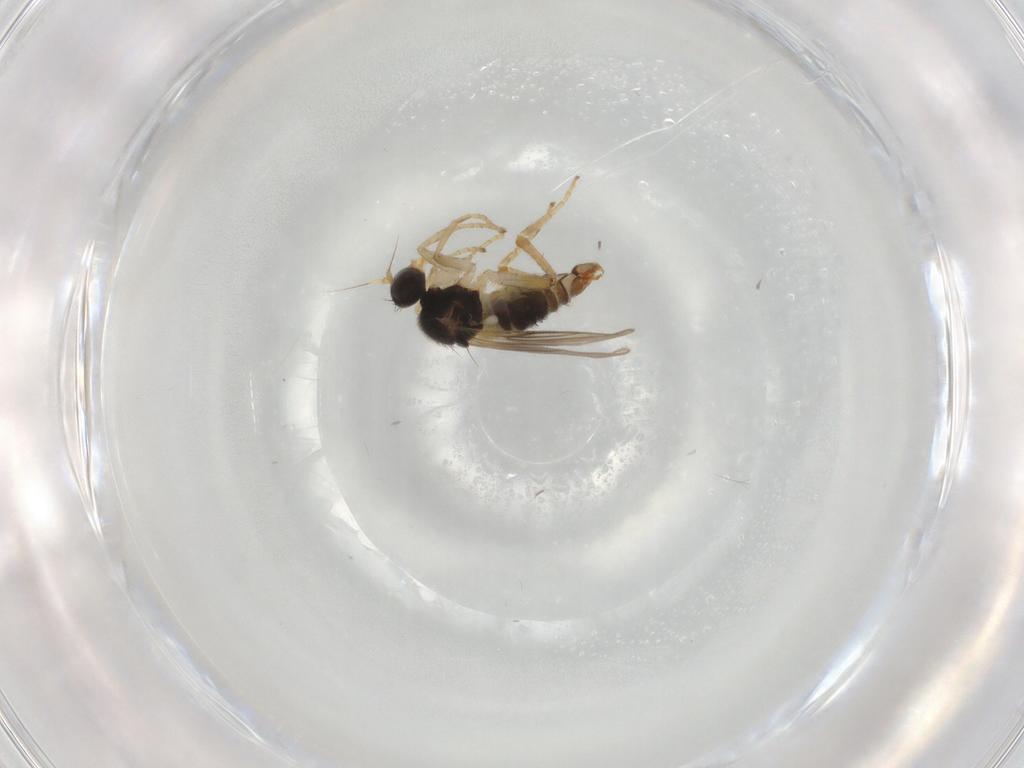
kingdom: Animalia
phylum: Arthropoda
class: Insecta
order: Diptera
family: Hybotidae
